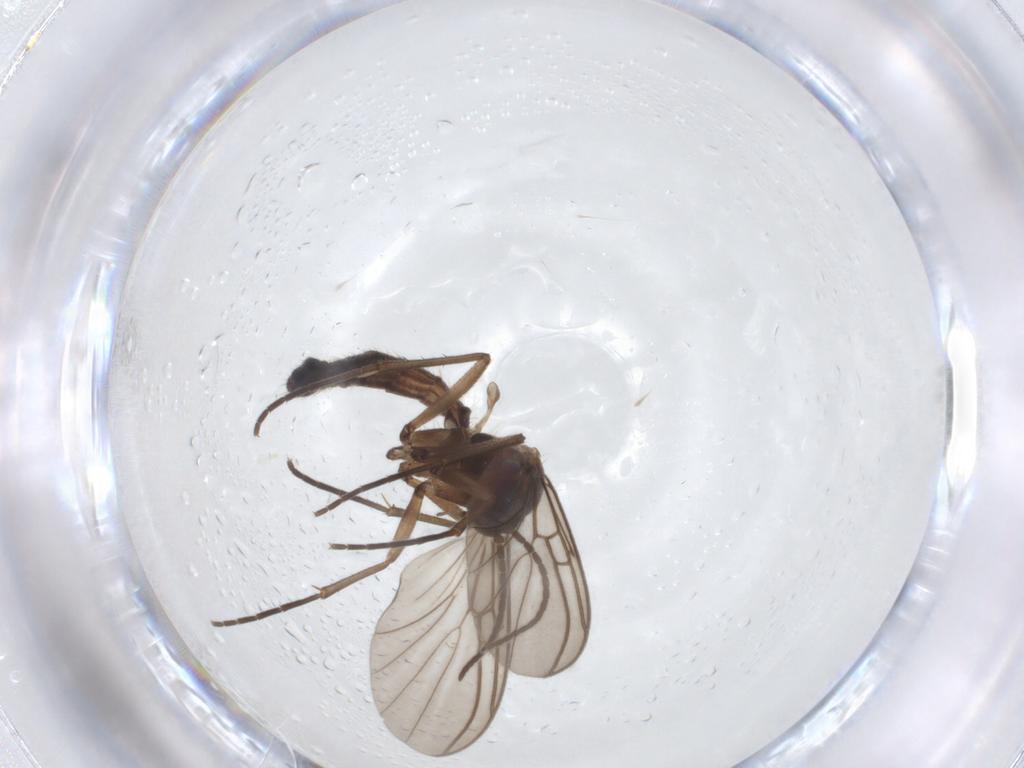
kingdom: Animalia
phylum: Arthropoda
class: Insecta
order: Diptera
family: Mycetophilidae
